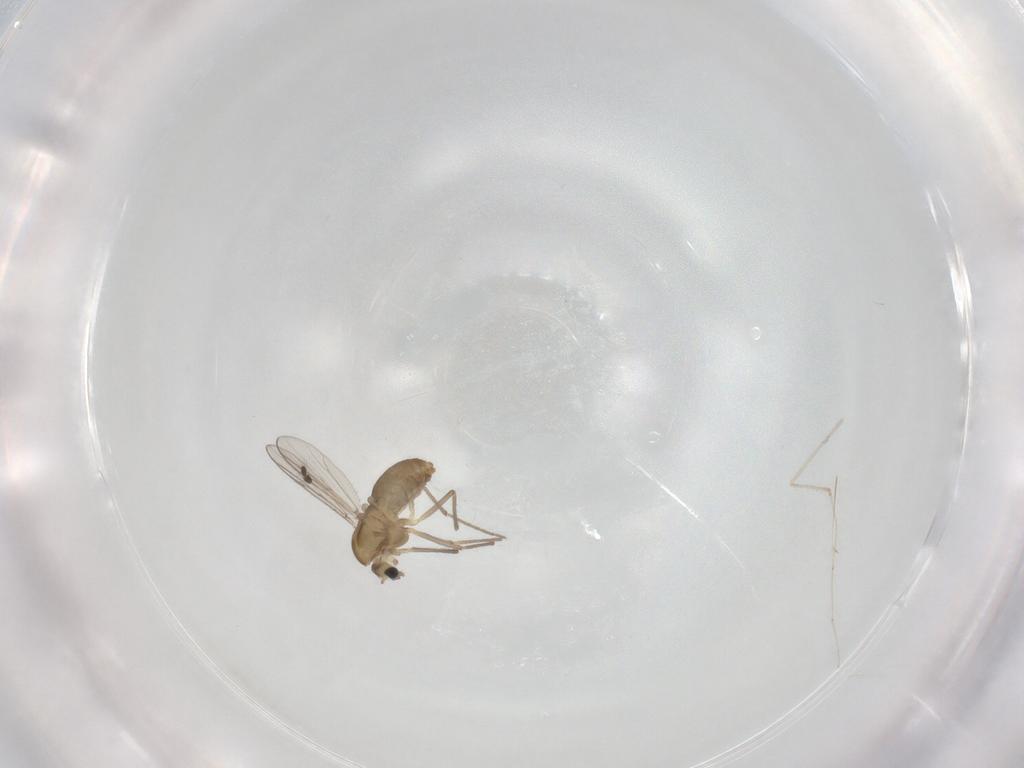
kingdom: Animalia
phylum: Arthropoda
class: Insecta
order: Diptera
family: Chironomidae
